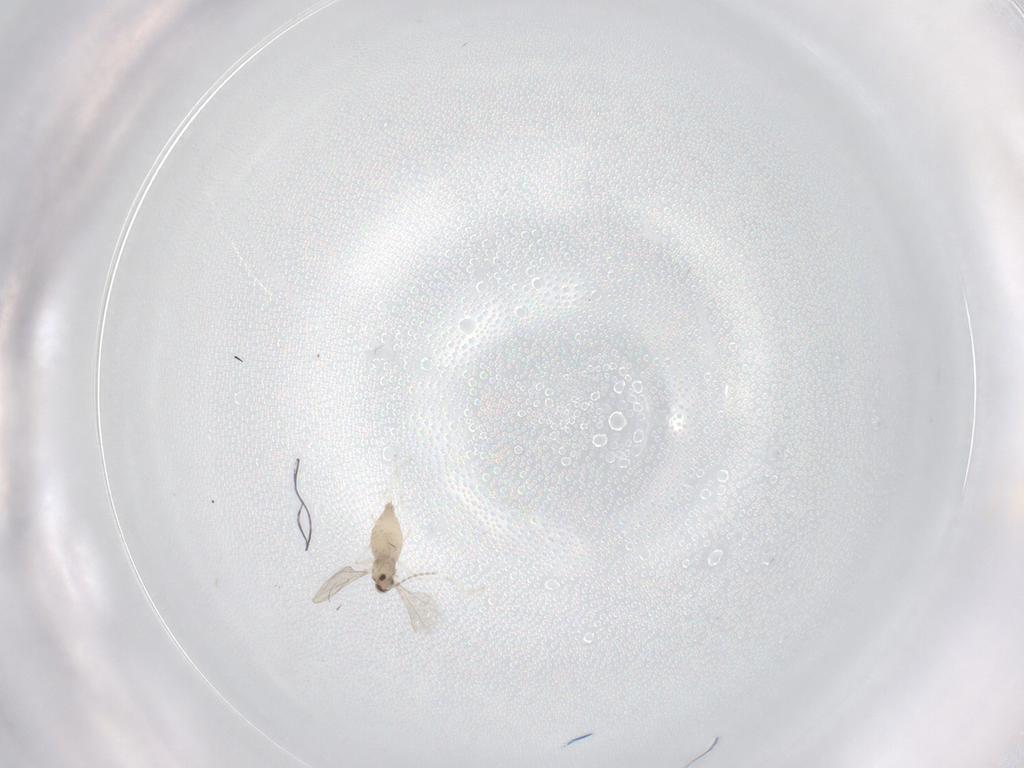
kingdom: Animalia
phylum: Arthropoda
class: Insecta
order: Diptera
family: Cecidomyiidae
